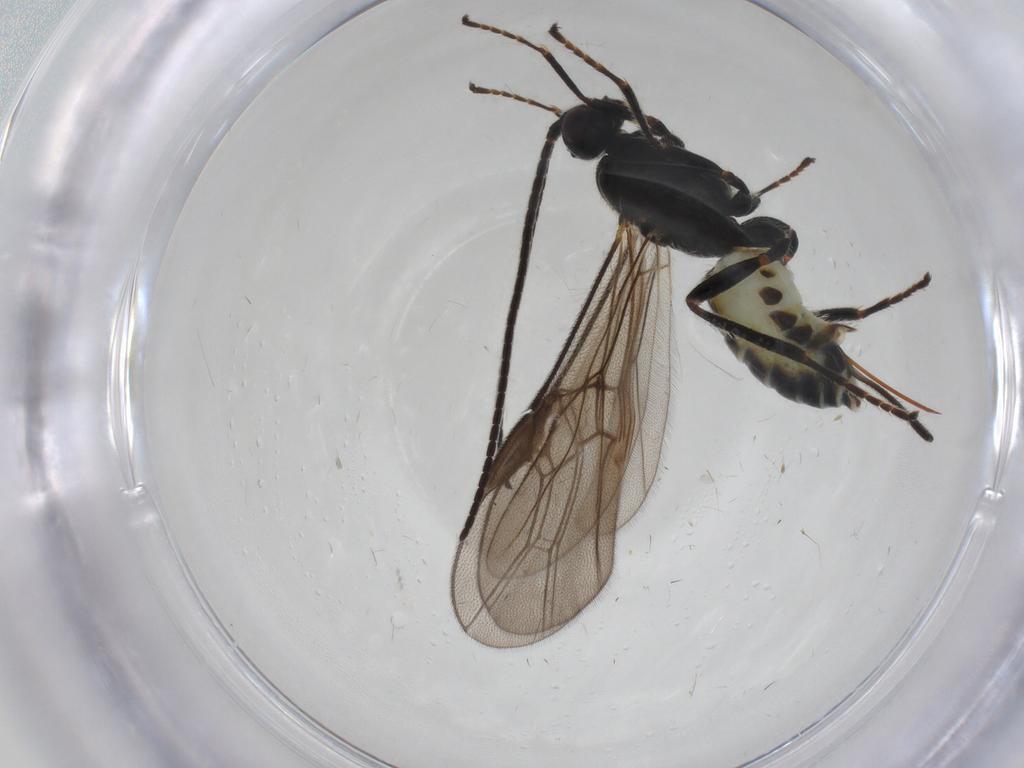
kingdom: Animalia
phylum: Arthropoda
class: Insecta
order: Hymenoptera
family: Braconidae
